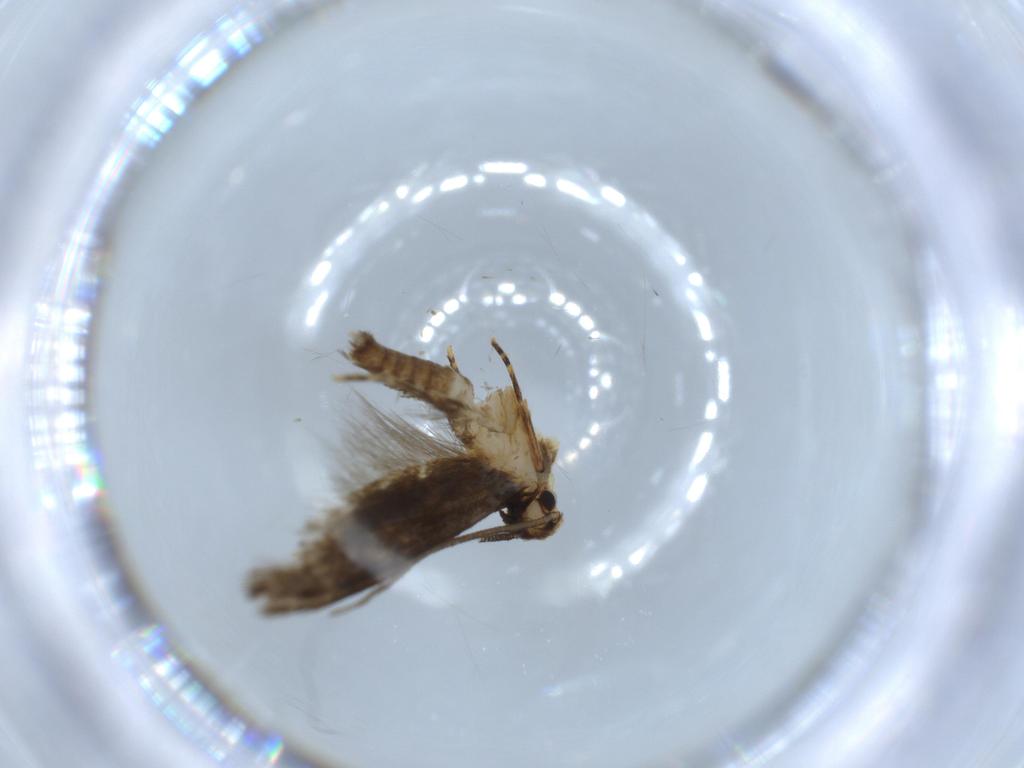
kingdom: Animalia
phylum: Arthropoda
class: Insecta
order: Lepidoptera
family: Tineidae
